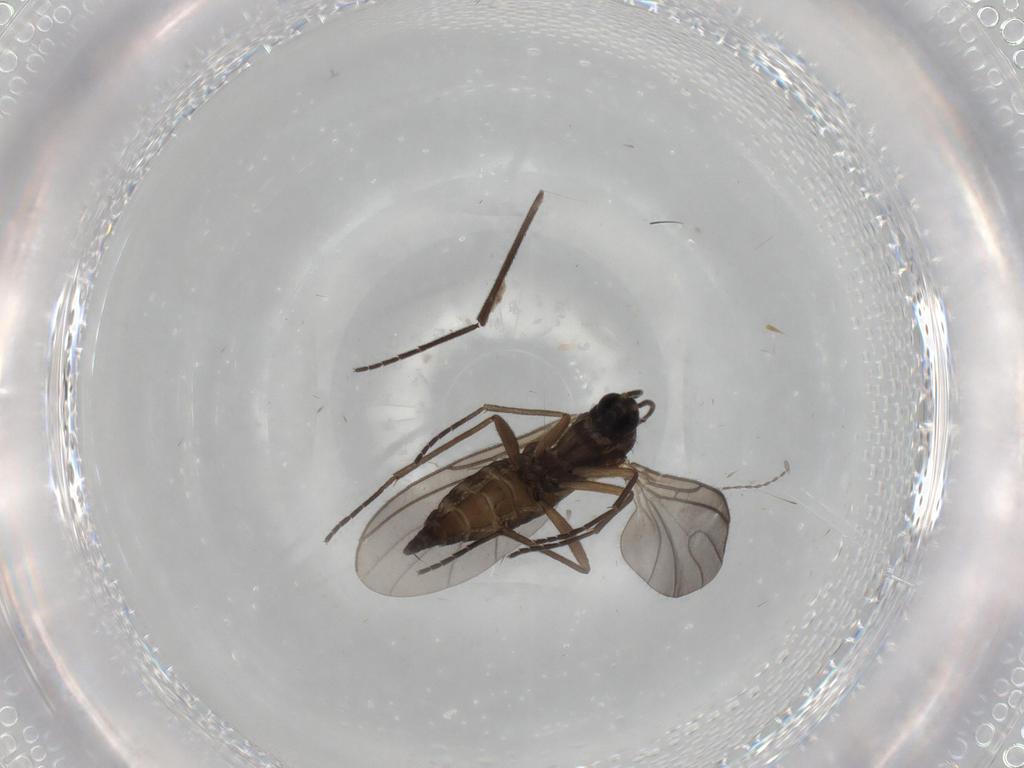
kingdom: Animalia
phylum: Arthropoda
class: Insecta
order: Diptera
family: Sciaridae
